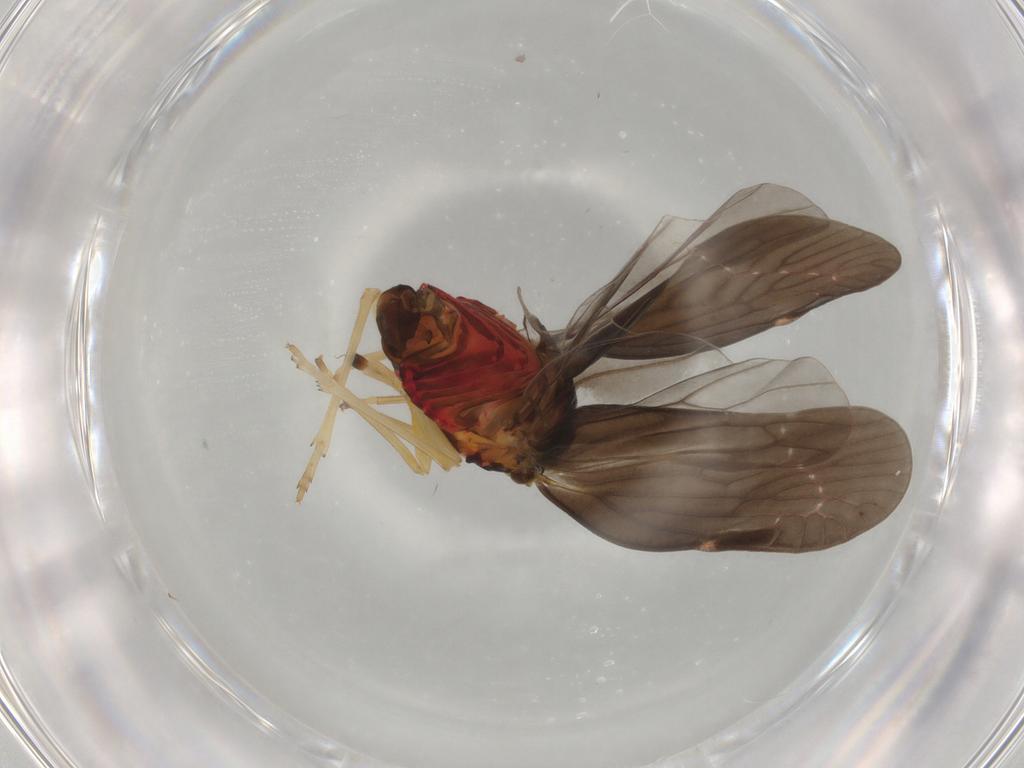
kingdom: Animalia
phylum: Arthropoda
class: Insecta
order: Hemiptera
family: Derbidae
